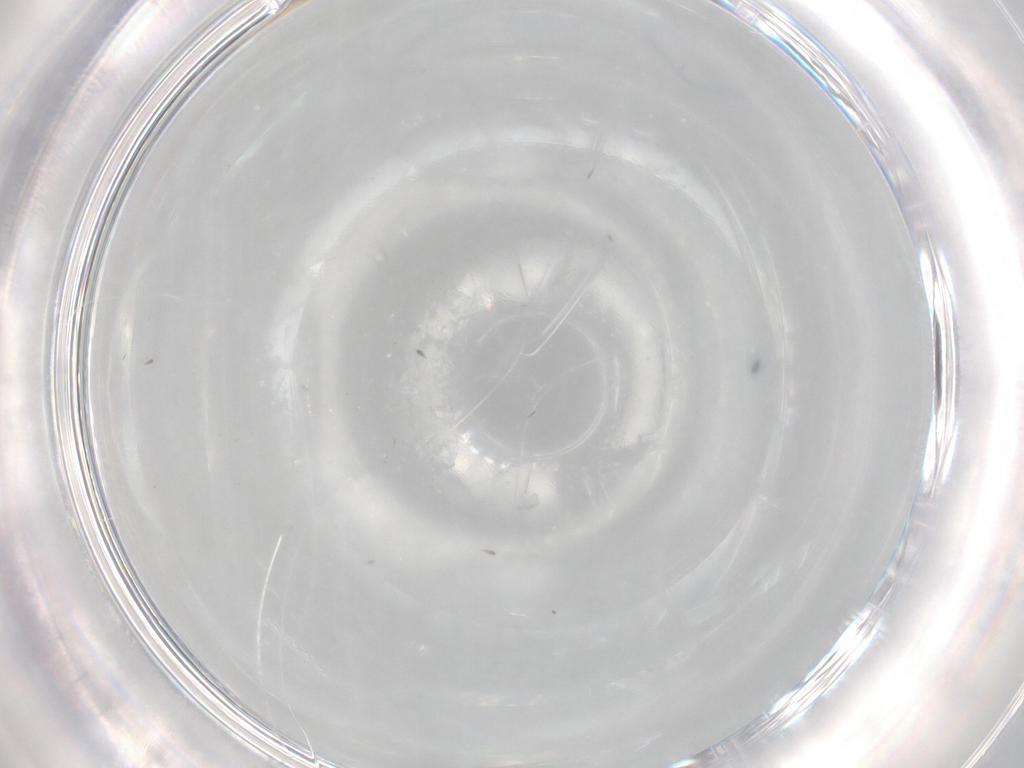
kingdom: Animalia
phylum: Arthropoda
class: Insecta
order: Diptera
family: Cecidomyiidae
